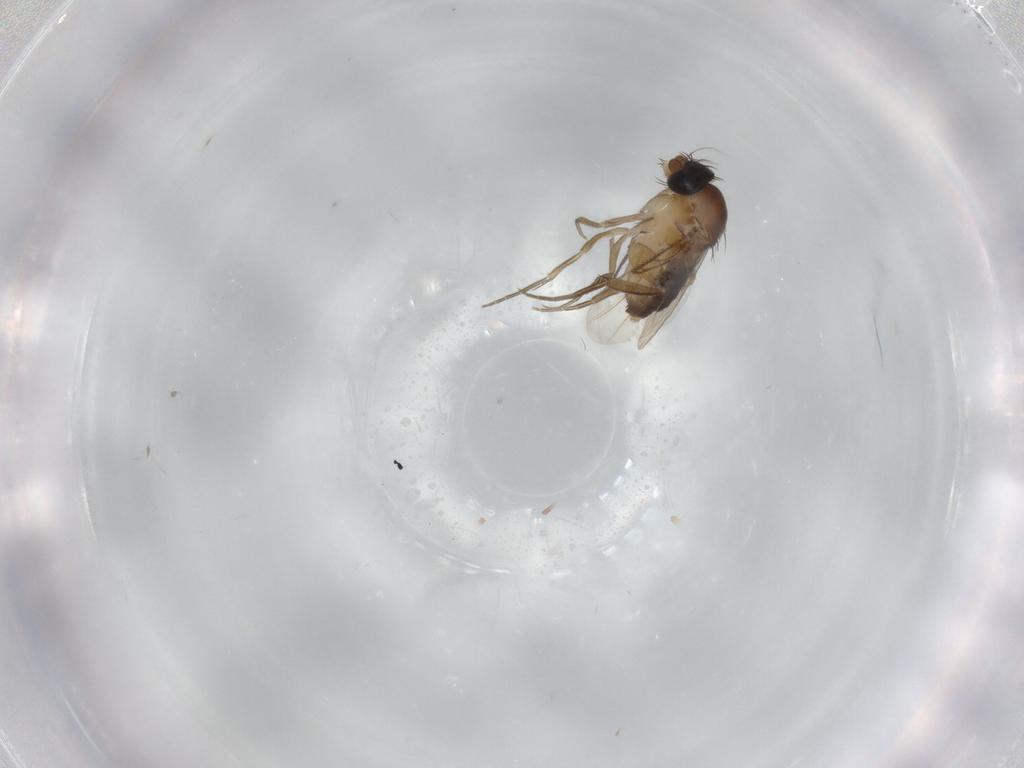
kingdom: Animalia
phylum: Arthropoda
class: Insecta
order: Diptera
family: Phoridae
